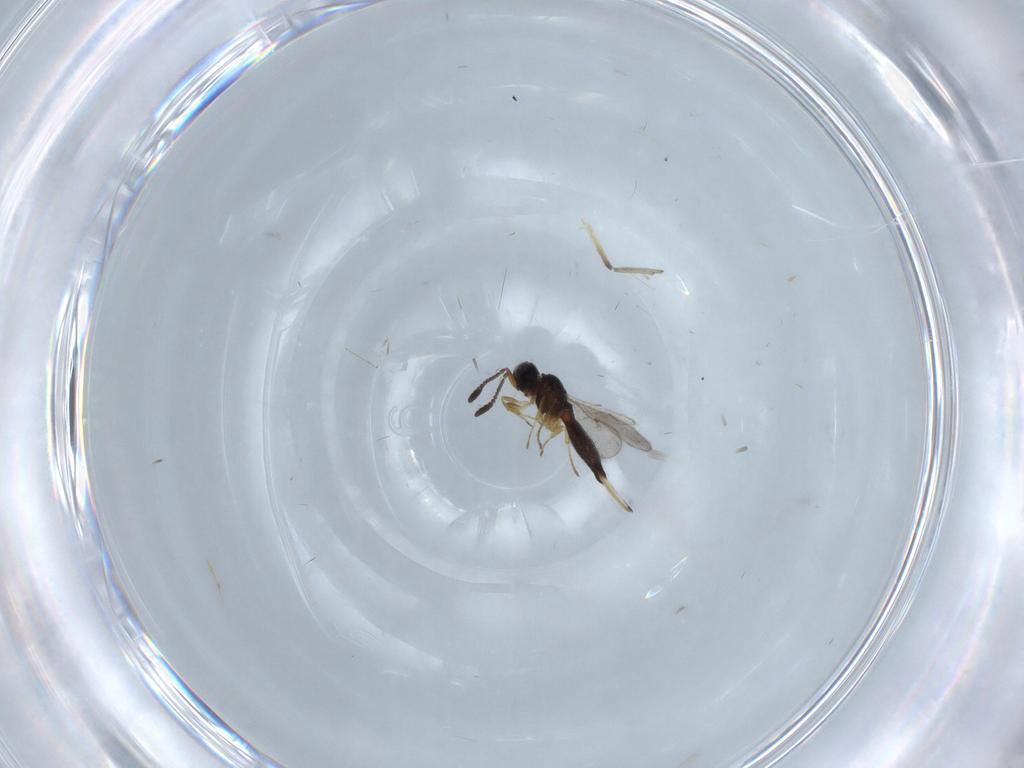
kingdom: Animalia
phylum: Arthropoda
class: Insecta
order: Hymenoptera
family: Scelionidae
